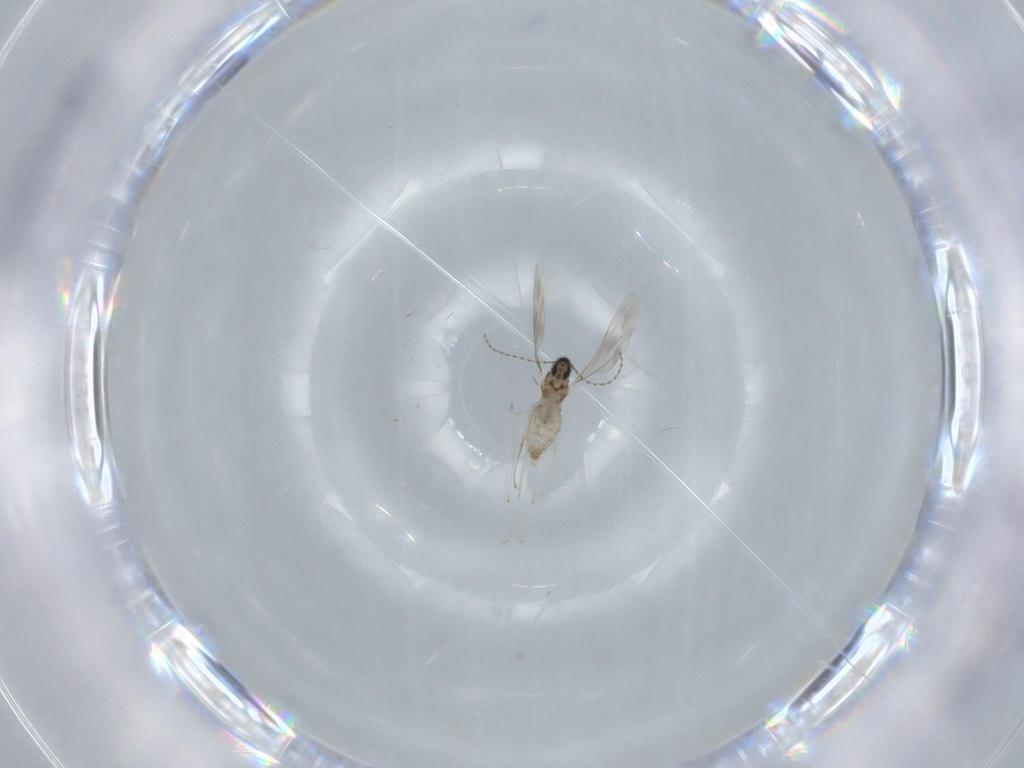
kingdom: Animalia
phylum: Arthropoda
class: Insecta
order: Diptera
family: Cecidomyiidae
